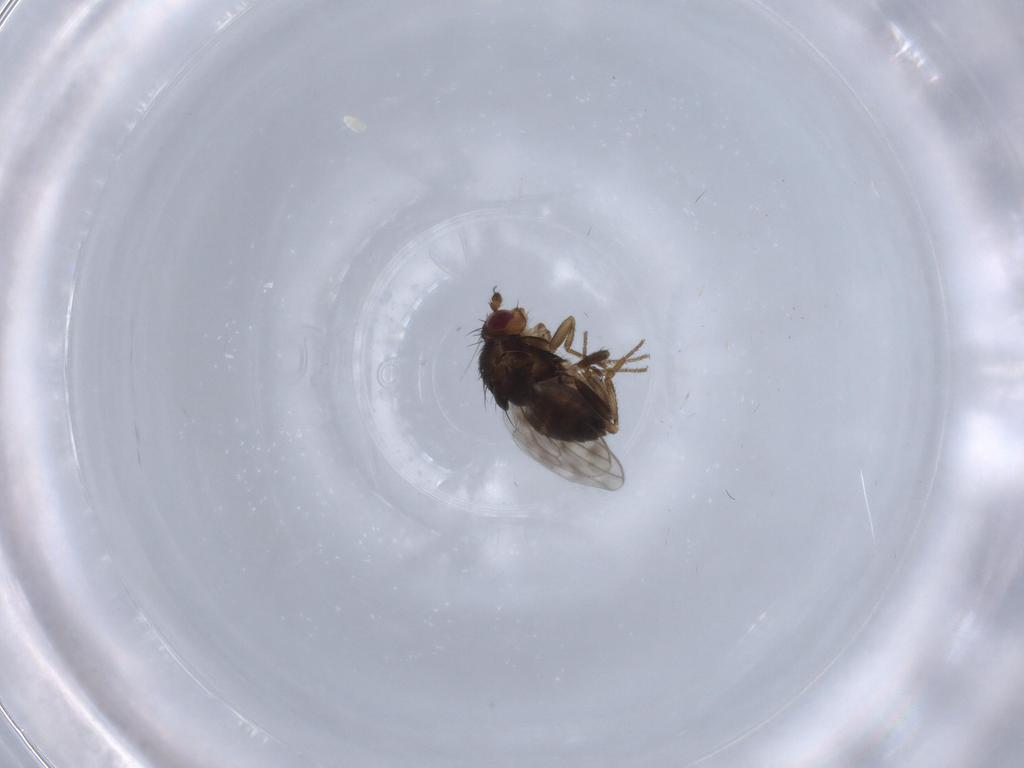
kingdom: Animalia
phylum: Arthropoda
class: Insecta
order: Diptera
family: Sphaeroceridae
